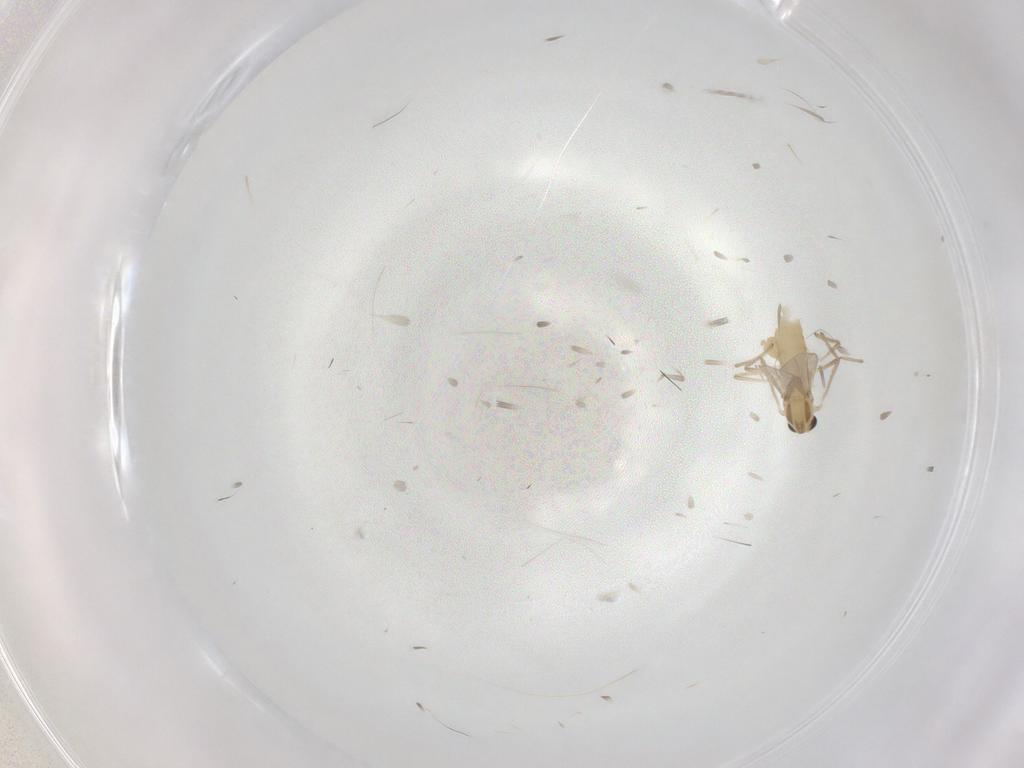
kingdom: Animalia
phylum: Arthropoda
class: Insecta
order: Diptera
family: Chironomidae
